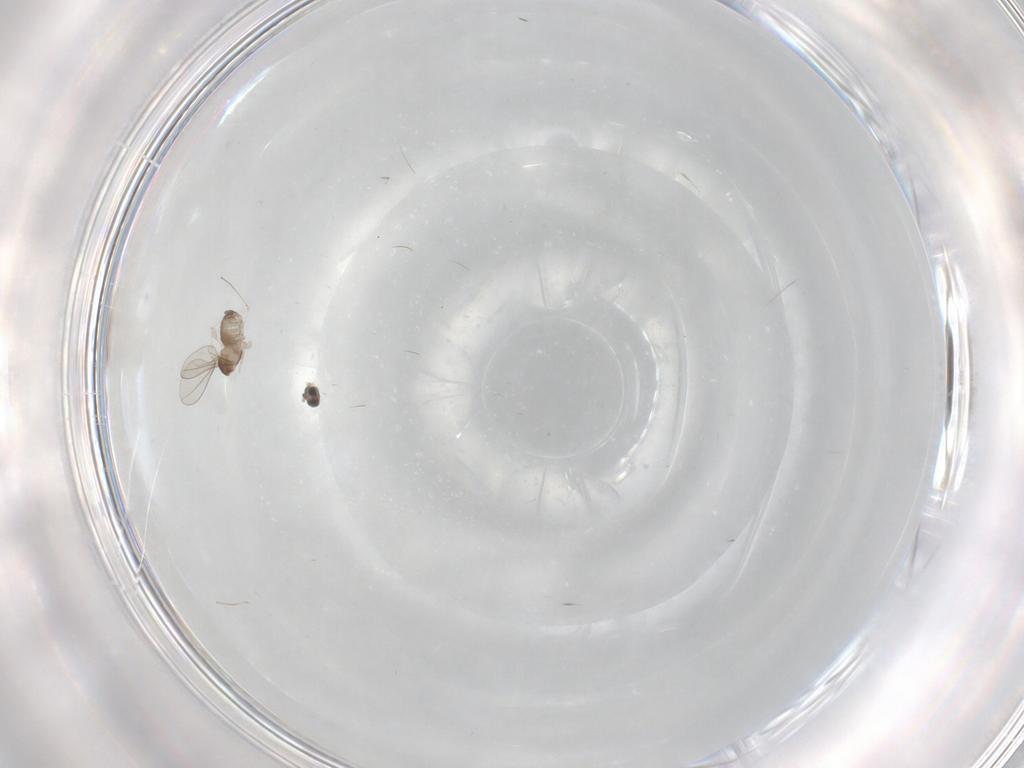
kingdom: Animalia
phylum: Arthropoda
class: Insecta
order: Diptera
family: Cecidomyiidae
